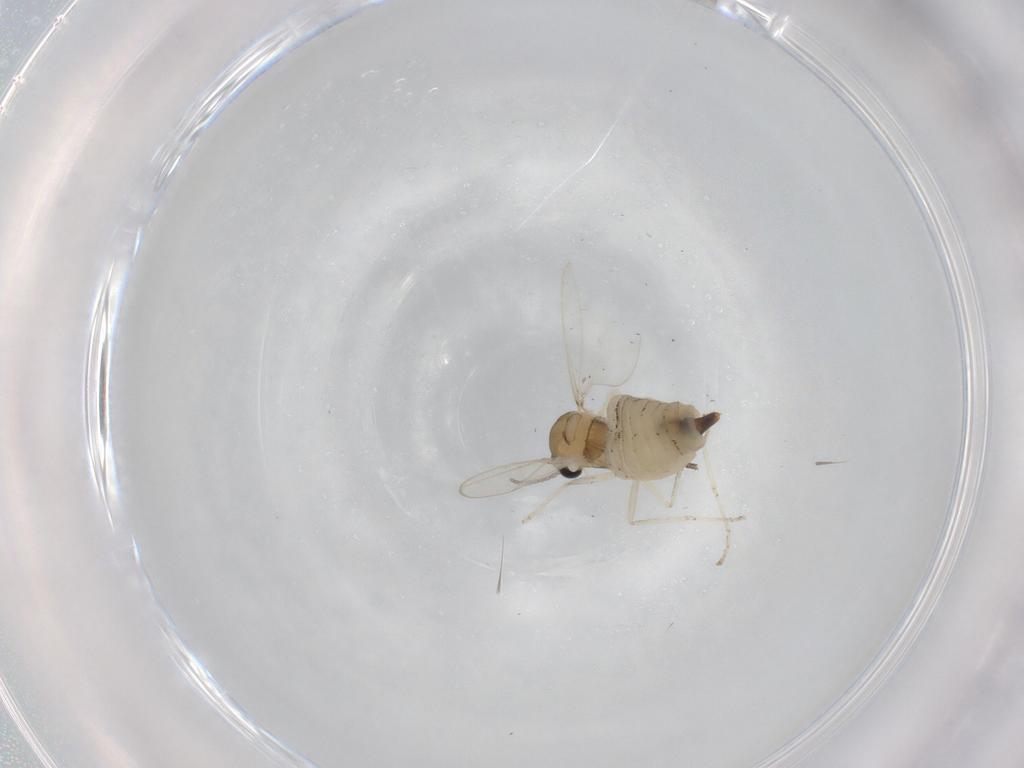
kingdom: Animalia
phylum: Arthropoda
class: Insecta
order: Diptera
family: Cecidomyiidae
